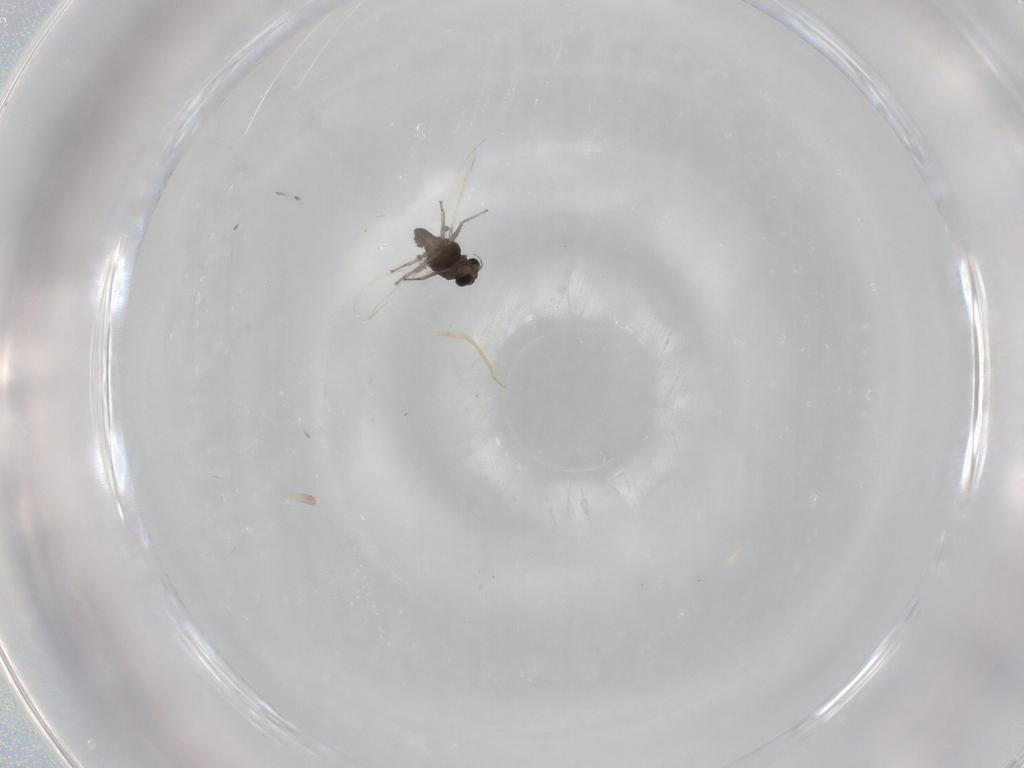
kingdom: Animalia
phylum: Arthropoda
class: Insecta
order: Diptera
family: Chironomidae
